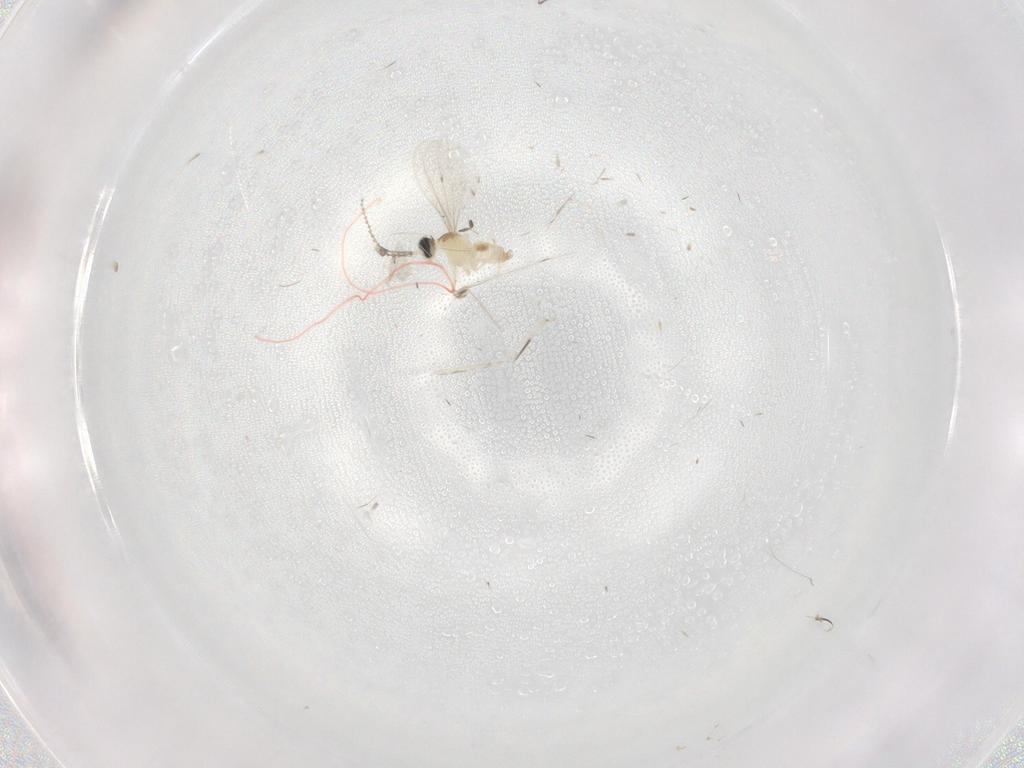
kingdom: Animalia
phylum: Arthropoda
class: Insecta
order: Diptera
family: Cecidomyiidae
